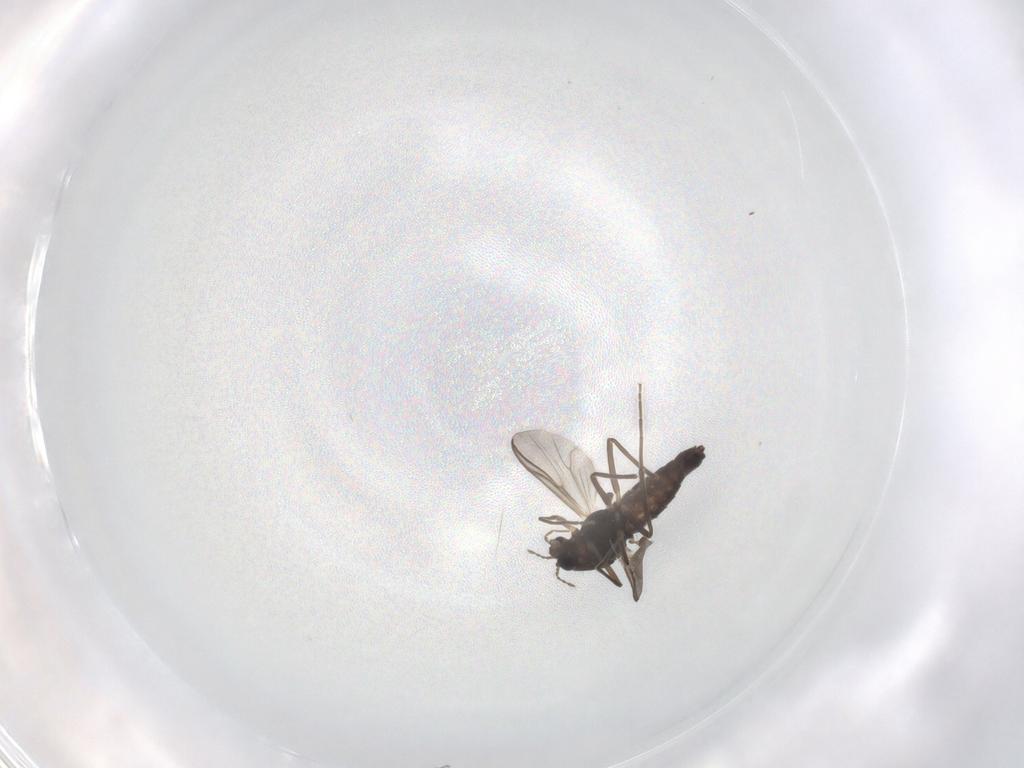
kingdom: Animalia
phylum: Arthropoda
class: Insecta
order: Diptera
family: Chironomidae
